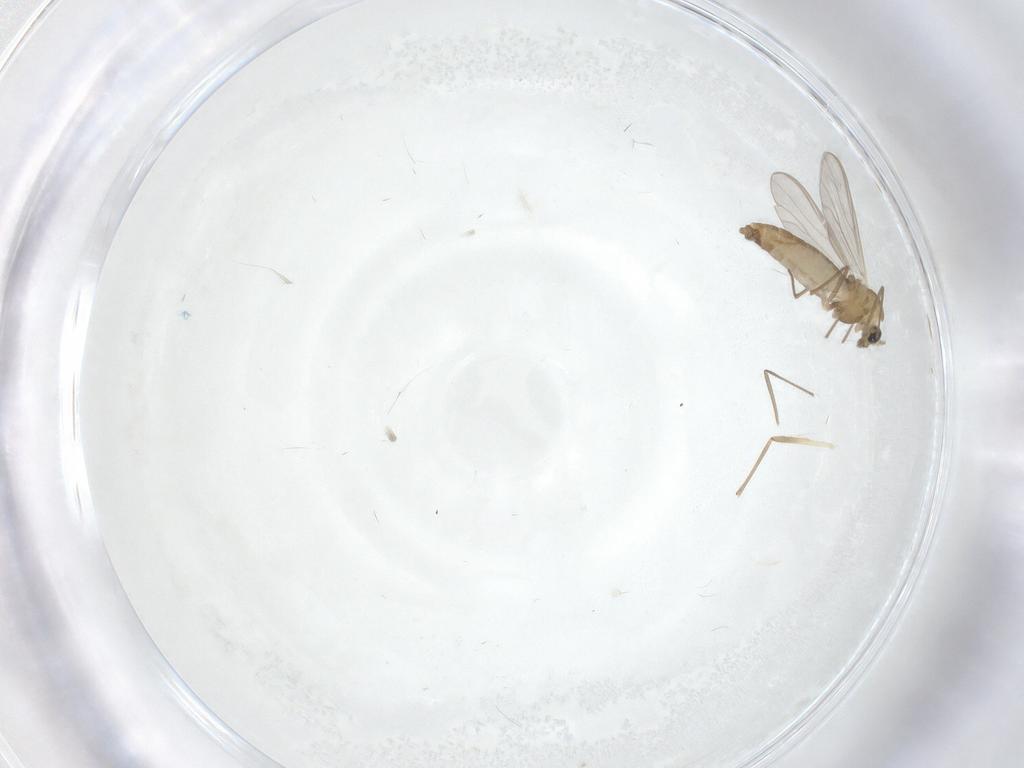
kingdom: Animalia
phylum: Arthropoda
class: Insecta
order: Diptera
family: Chironomidae
